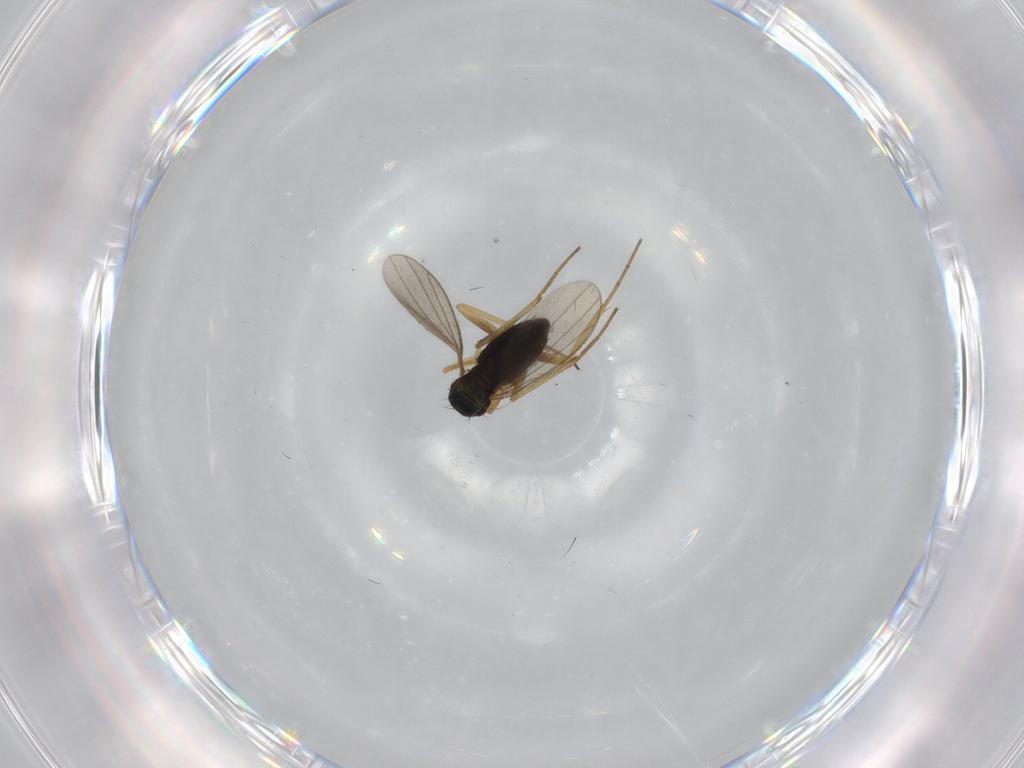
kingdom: Animalia
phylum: Arthropoda
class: Insecta
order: Diptera
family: Dolichopodidae
